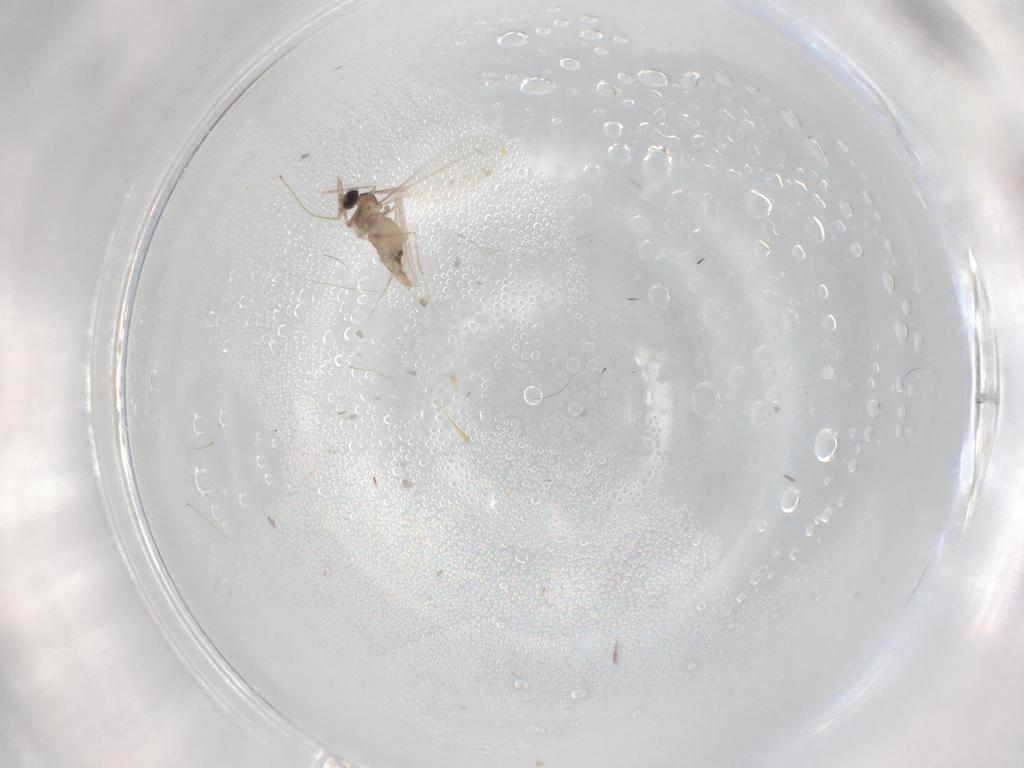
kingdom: Animalia
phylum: Arthropoda
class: Insecta
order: Diptera
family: Cecidomyiidae
